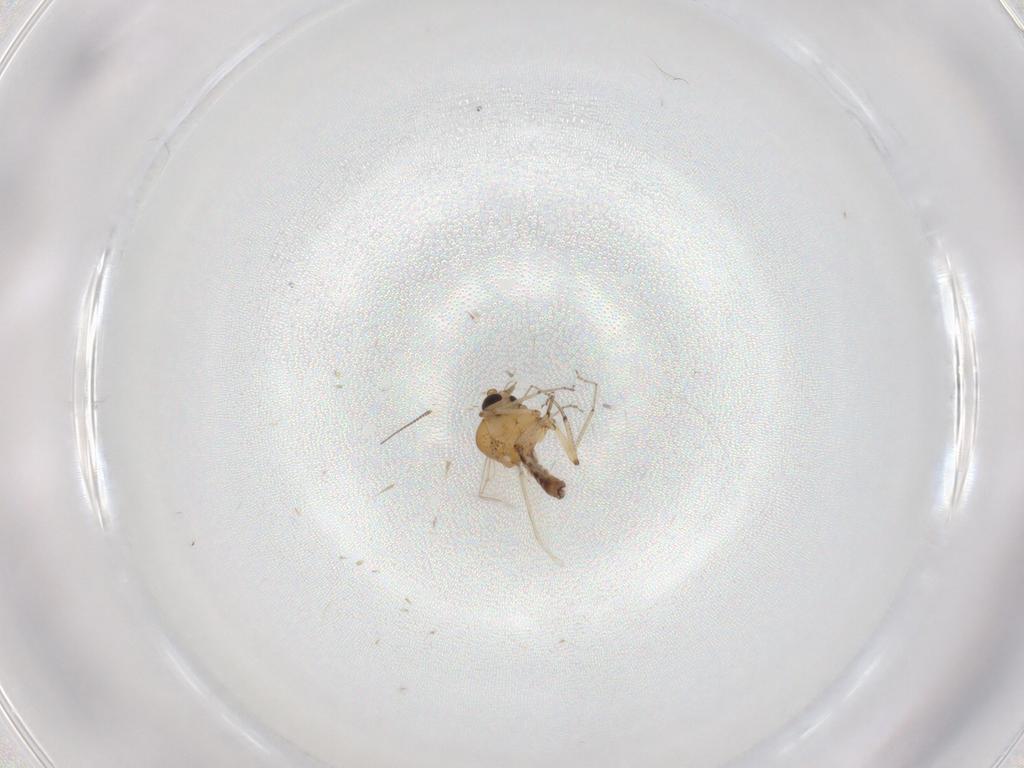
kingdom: Animalia
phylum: Arthropoda
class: Insecta
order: Diptera
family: Ceratopogonidae
